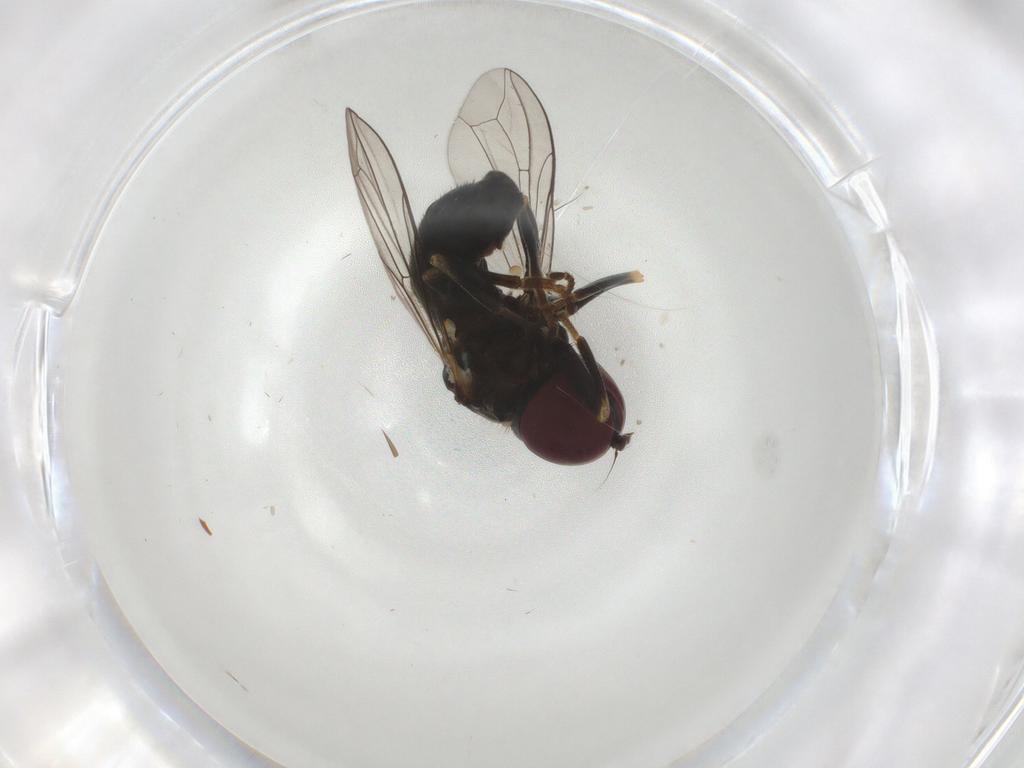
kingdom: Animalia
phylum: Arthropoda
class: Insecta
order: Diptera
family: Pipunculidae
